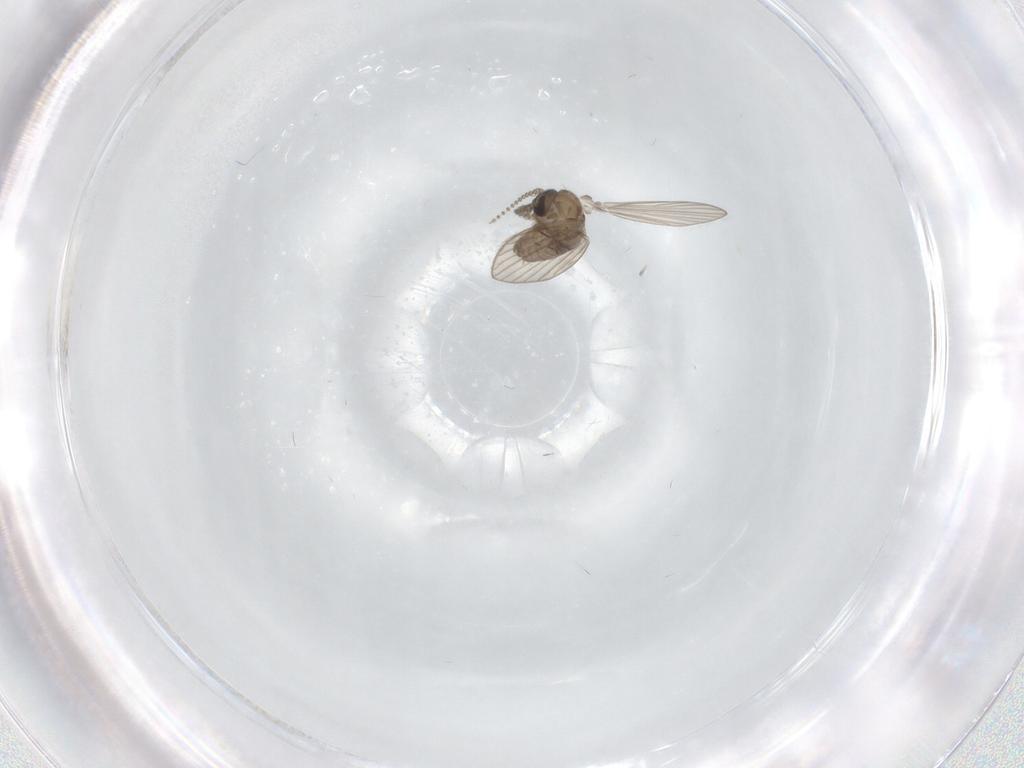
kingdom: Animalia
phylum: Arthropoda
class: Insecta
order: Diptera
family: Psychodidae
